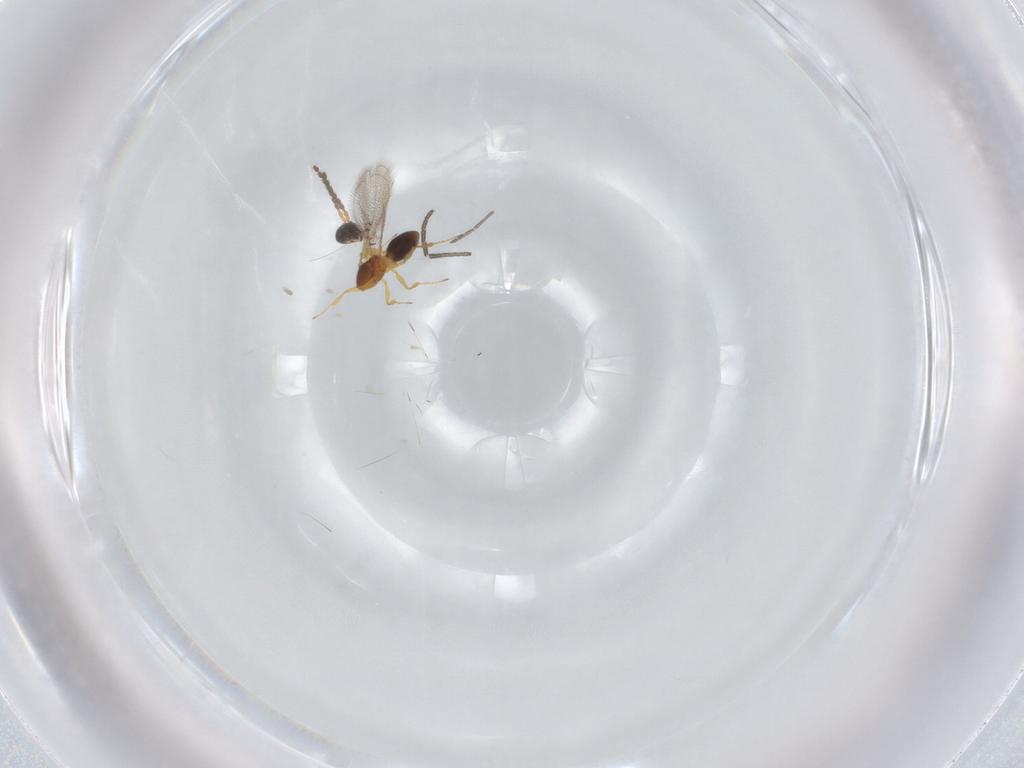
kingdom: Animalia
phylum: Arthropoda
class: Insecta
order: Hymenoptera
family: Figitidae
